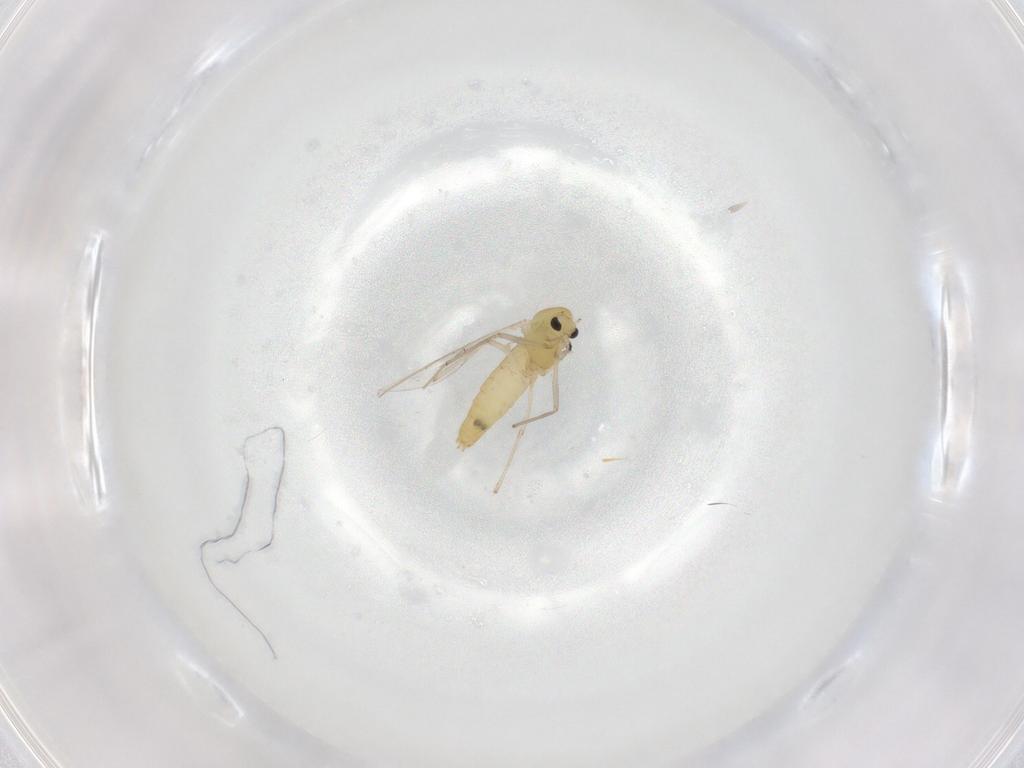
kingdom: Animalia
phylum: Arthropoda
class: Insecta
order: Diptera
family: Chironomidae
